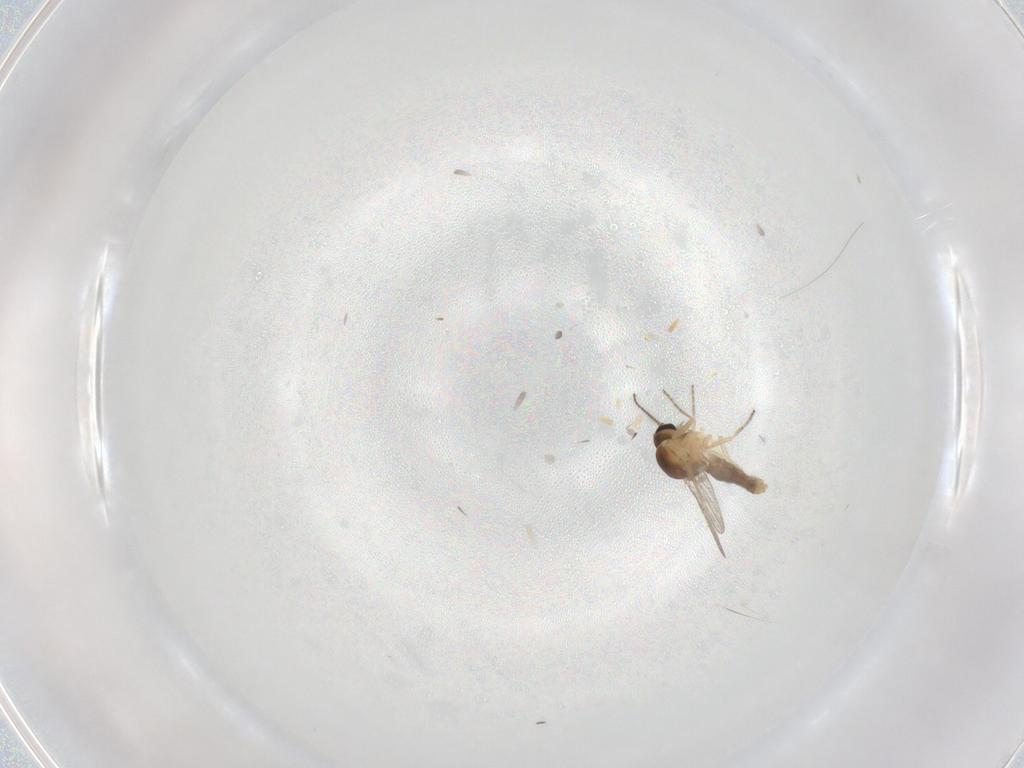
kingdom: Animalia
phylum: Arthropoda
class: Insecta
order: Diptera
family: Ceratopogonidae
